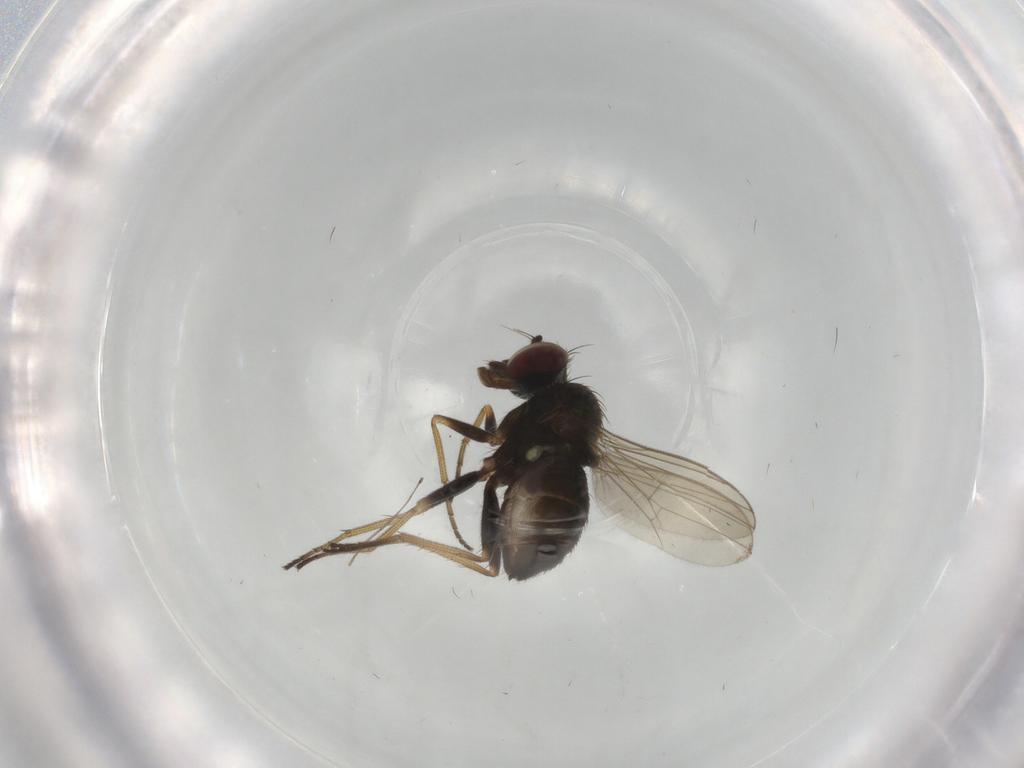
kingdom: Animalia
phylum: Arthropoda
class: Insecta
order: Diptera
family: Dolichopodidae
